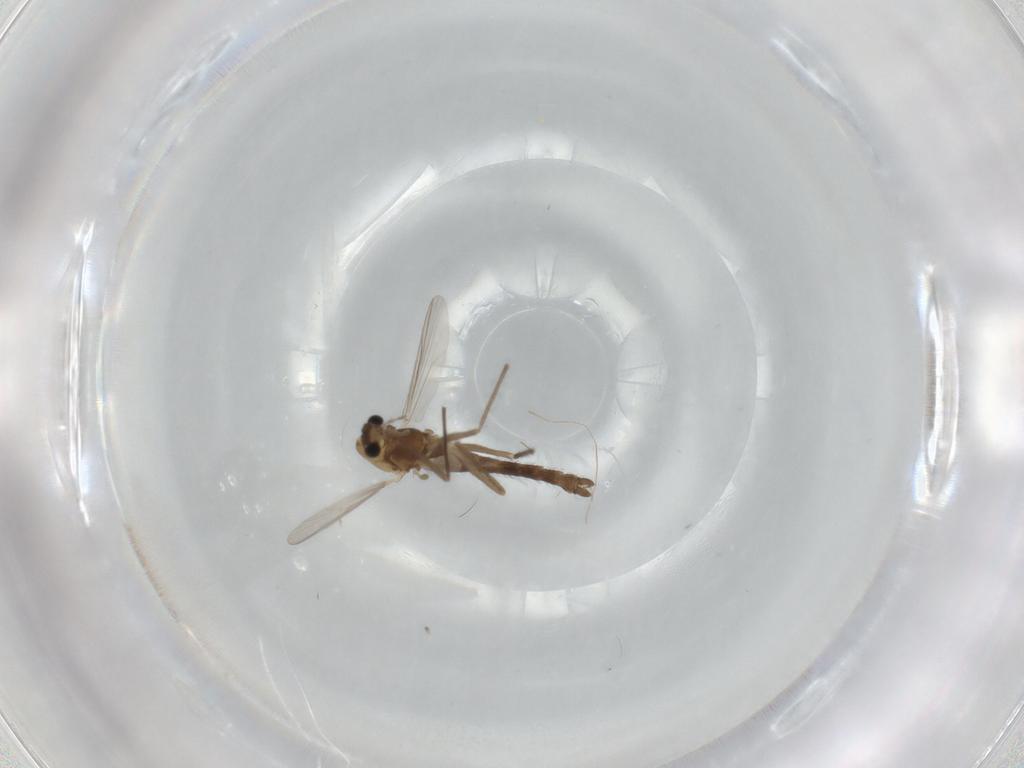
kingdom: Animalia
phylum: Arthropoda
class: Insecta
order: Diptera
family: Chironomidae
